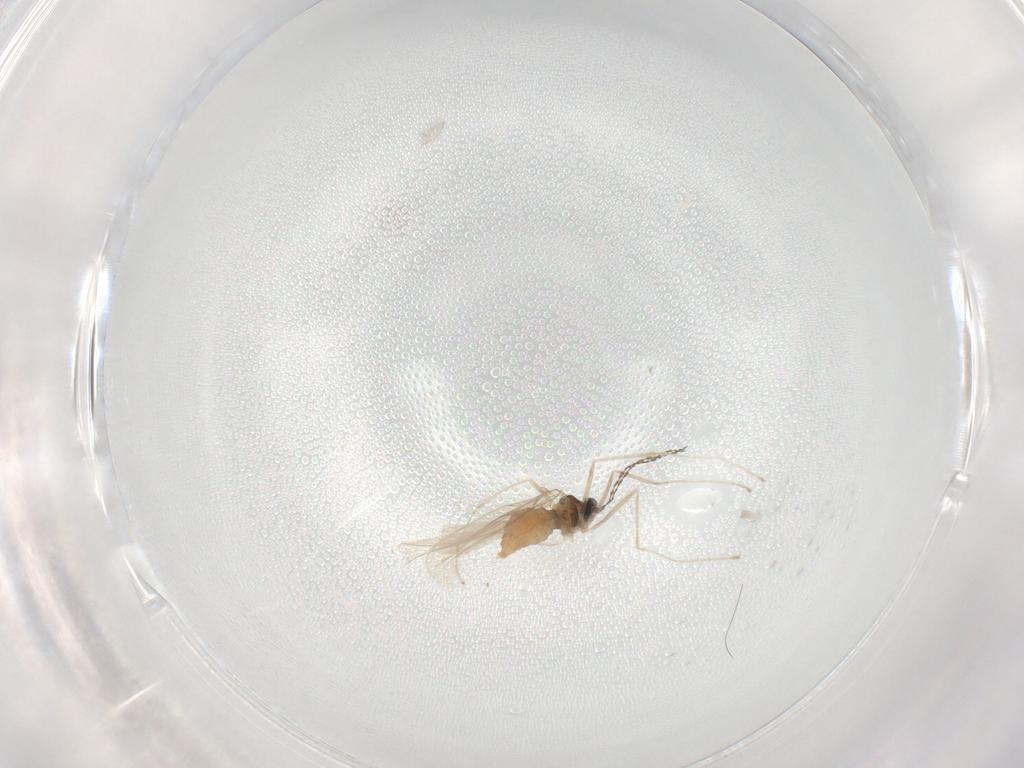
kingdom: Animalia
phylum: Arthropoda
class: Insecta
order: Diptera
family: Cecidomyiidae
